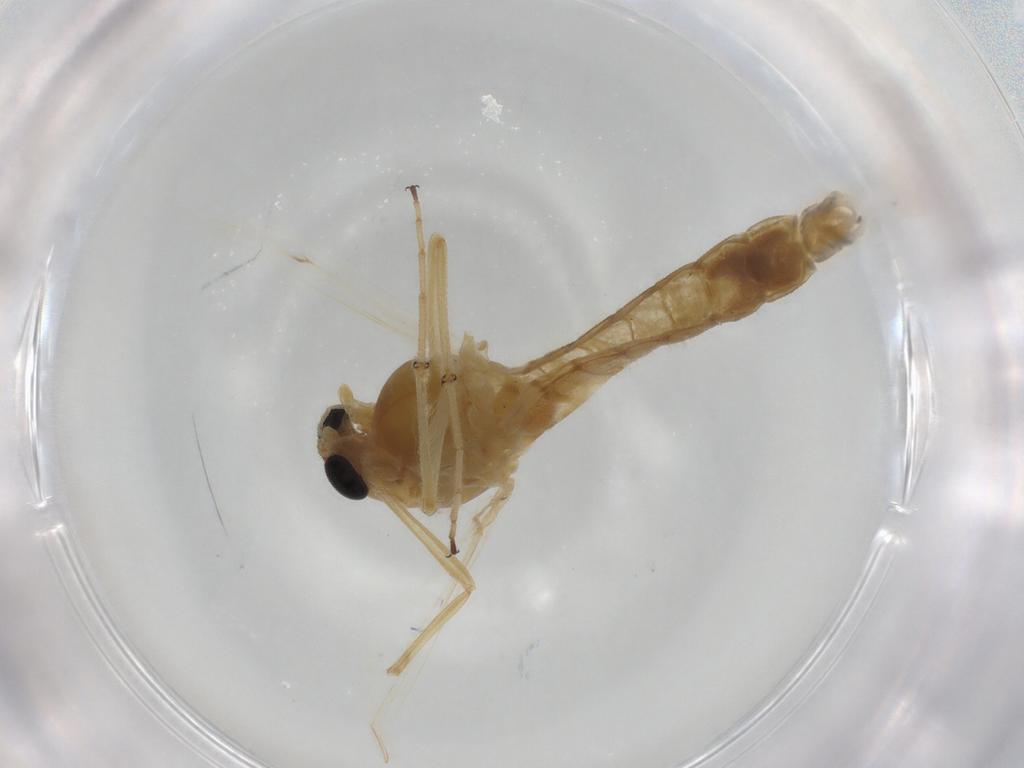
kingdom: Animalia
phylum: Arthropoda
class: Insecta
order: Diptera
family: Chironomidae
